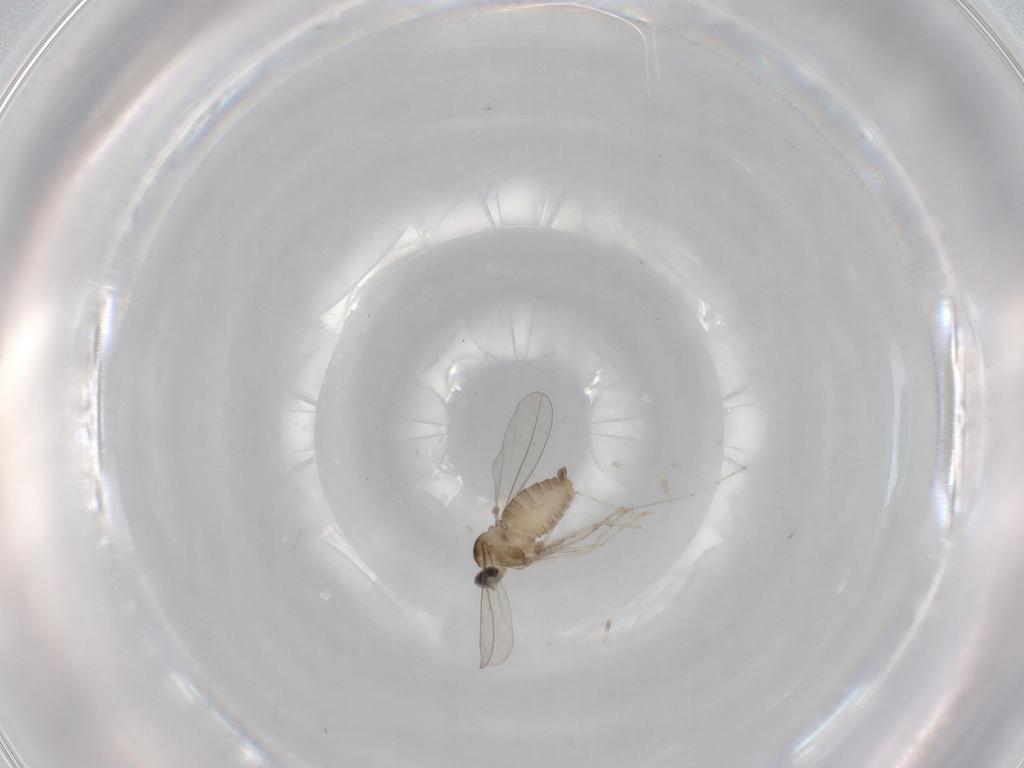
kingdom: Animalia
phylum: Arthropoda
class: Insecta
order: Diptera
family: Cecidomyiidae
